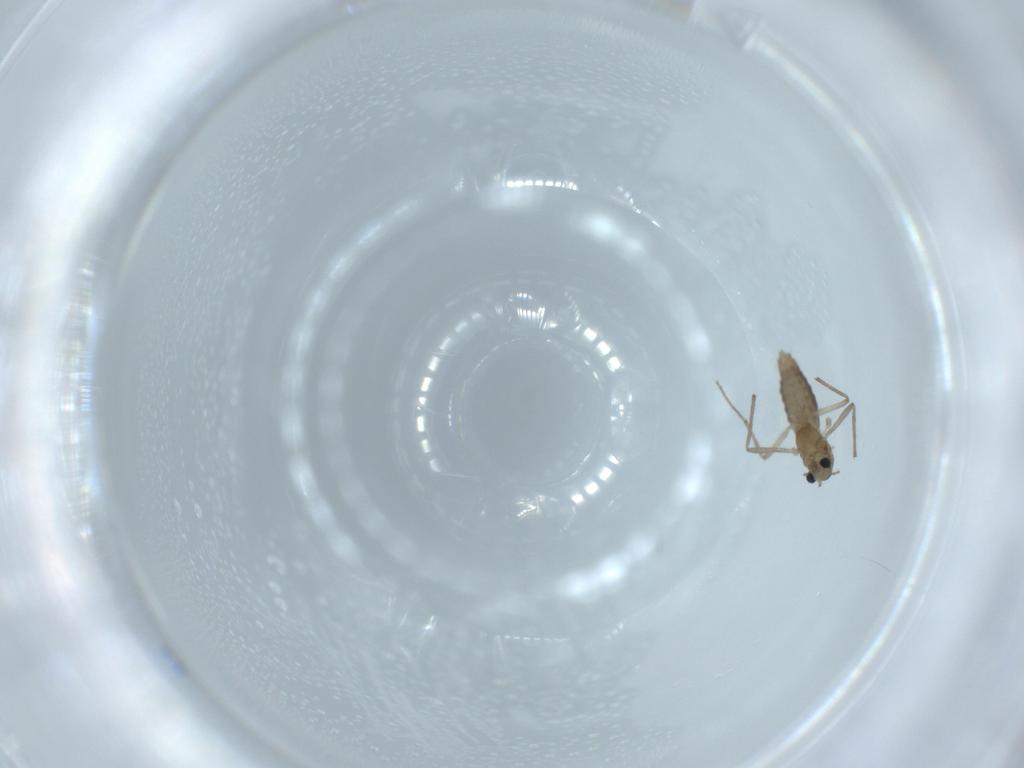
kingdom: Animalia
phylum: Arthropoda
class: Insecta
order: Diptera
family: Chironomidae
